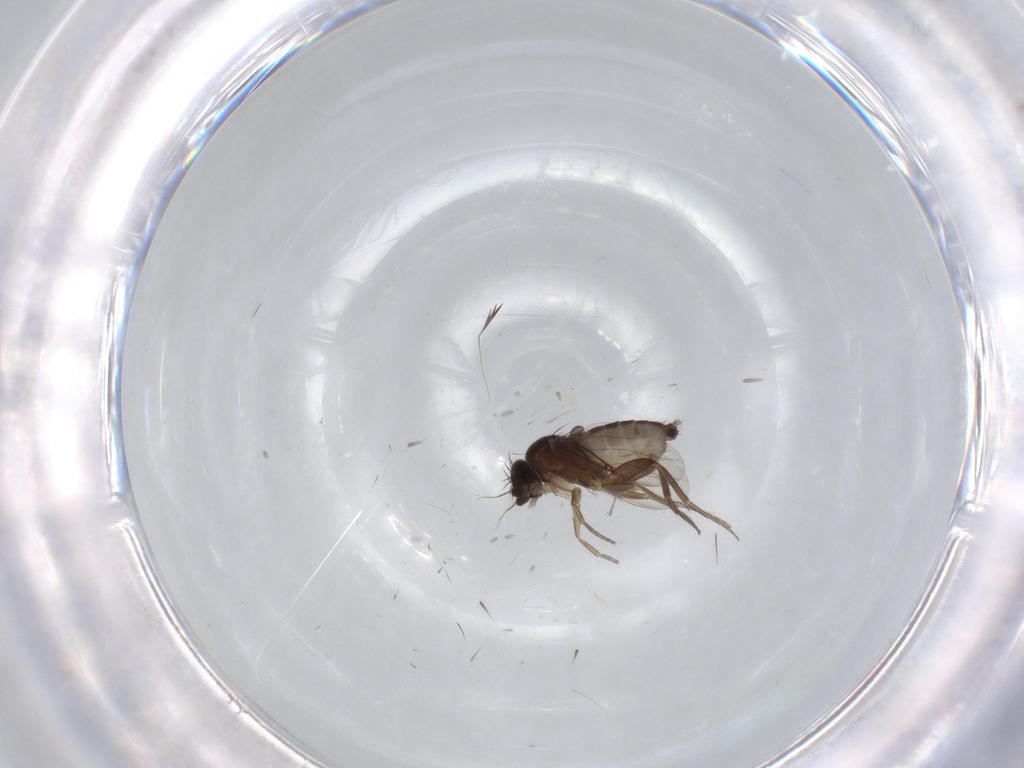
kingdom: Animalia
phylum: Arthropoda
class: Insecta
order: Diptera
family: Phoridae
